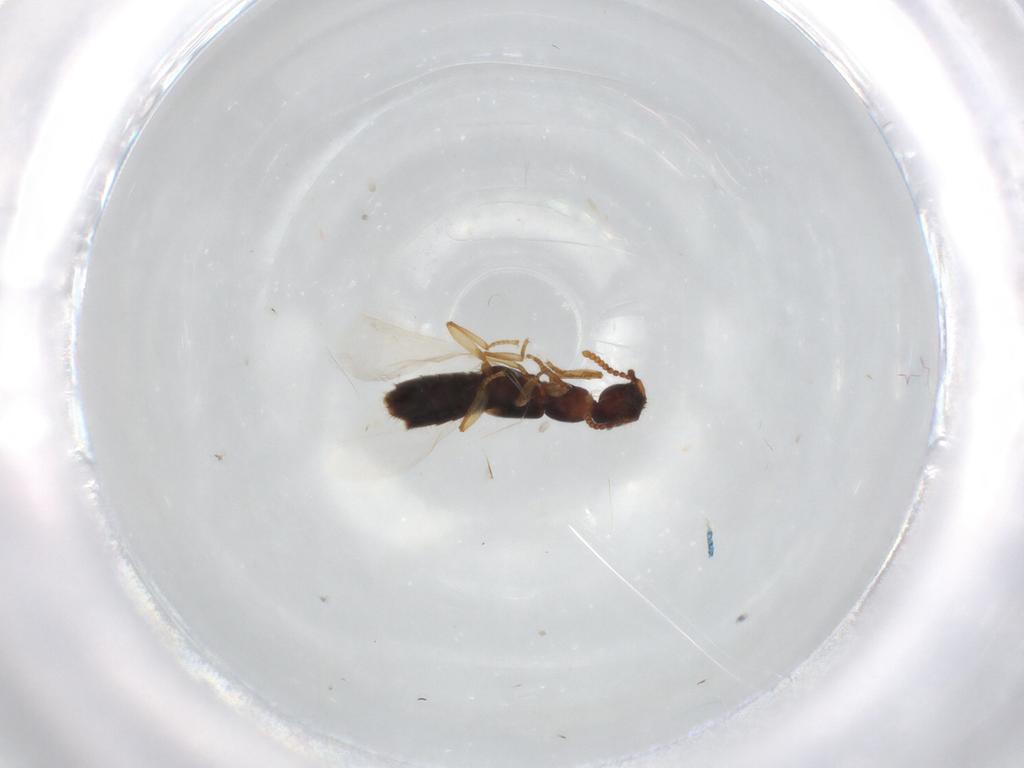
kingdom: Animalia
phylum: Arthropoda
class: Insecta
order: Coleoptera
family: Staphylinidae
